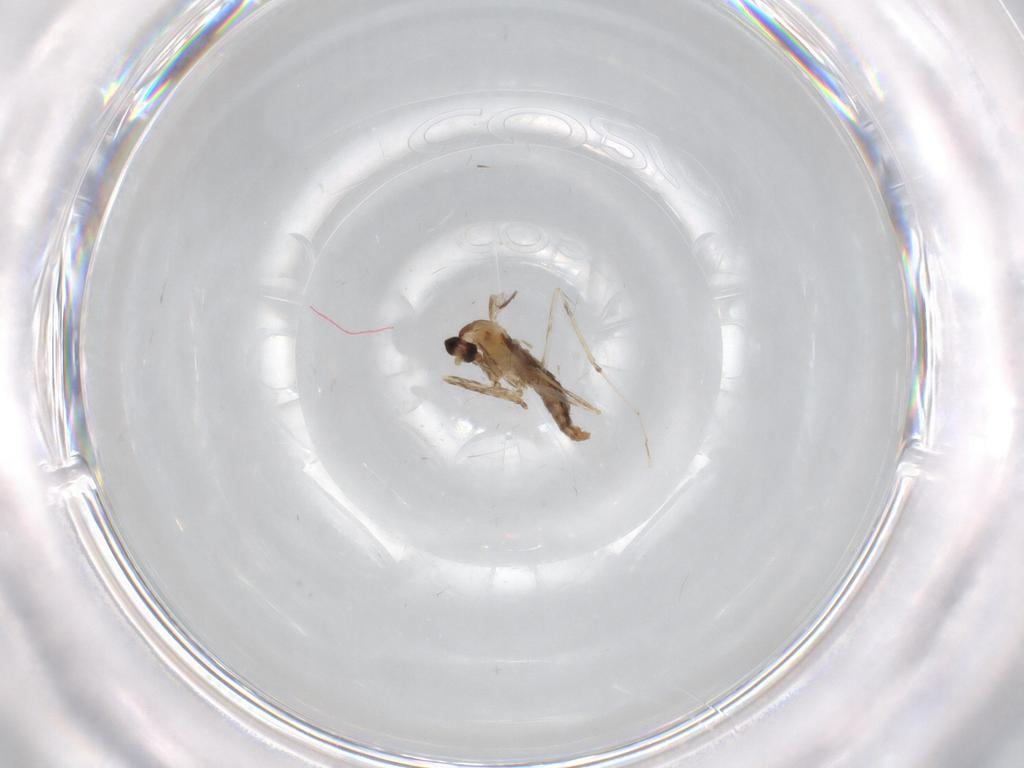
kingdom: Animalia
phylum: Arthropoda
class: Insecta
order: Diptera
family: Cecidomyiidae
